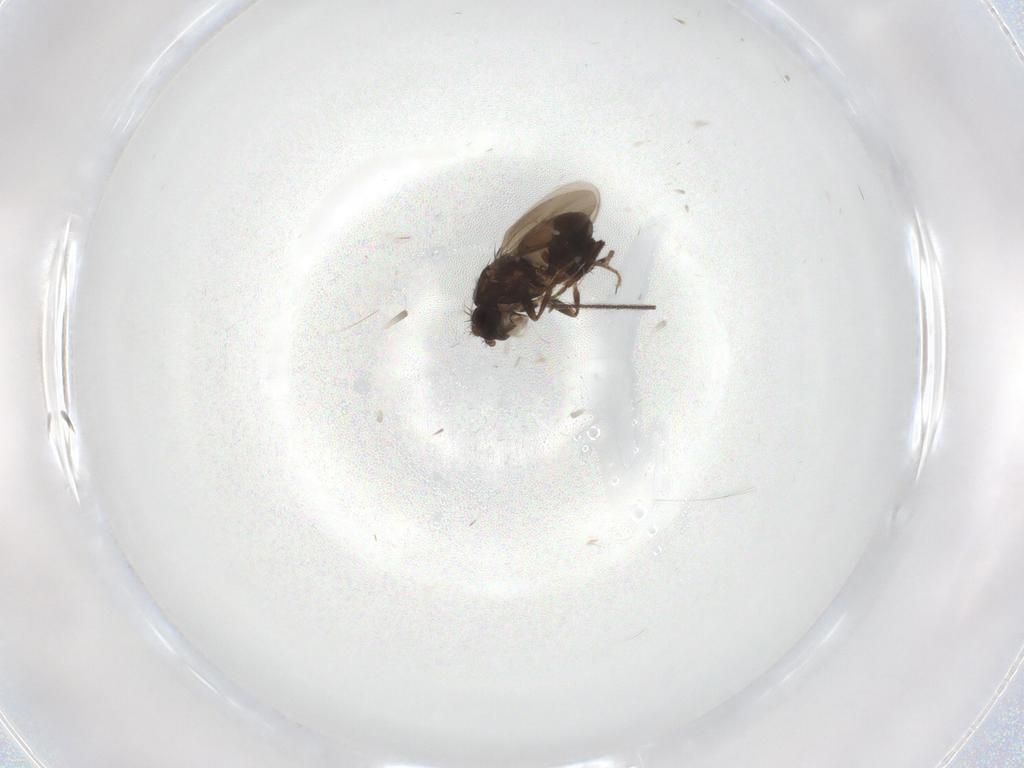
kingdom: Animalia
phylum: Arthropoda
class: Insecta
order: Diptera
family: Sphaeroceridae
